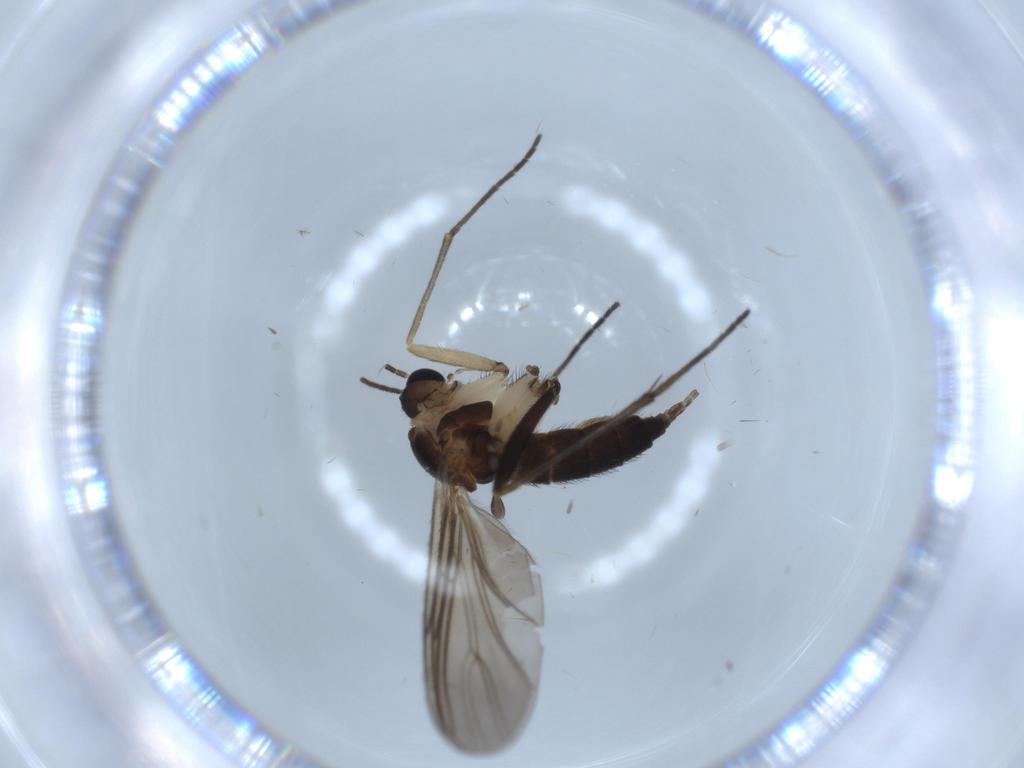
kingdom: Animalia
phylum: Arthropoda
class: Insecta
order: Diptera
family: Sciaridae
